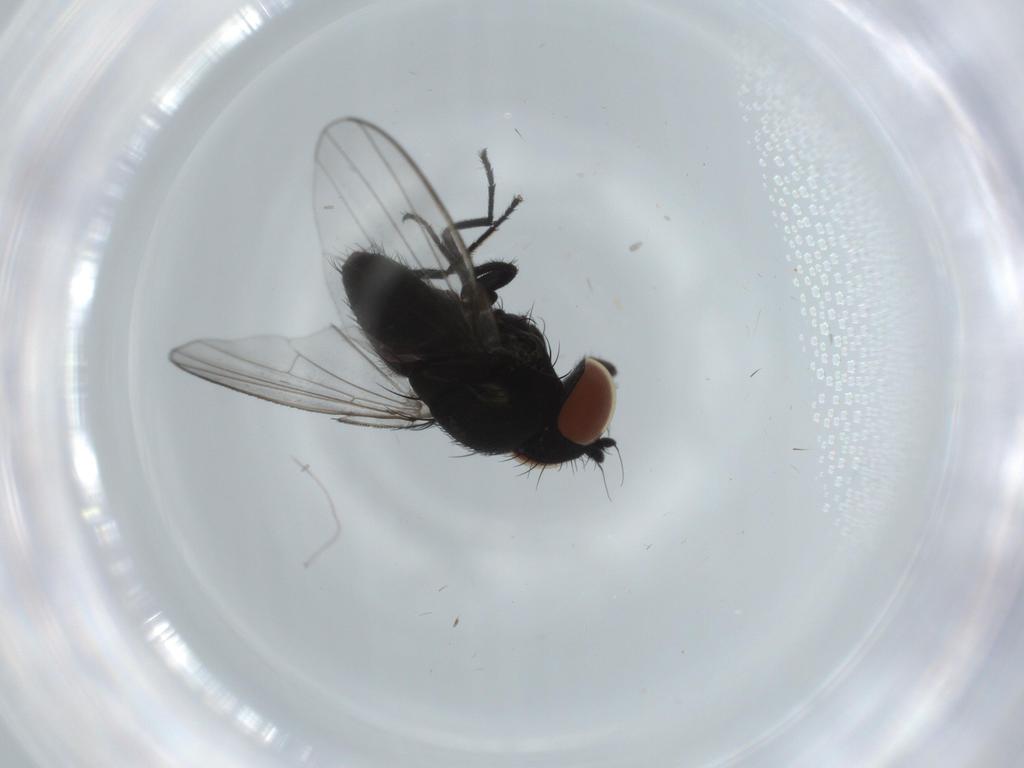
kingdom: Animalia
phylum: Arthropoda
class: Insecta
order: Diptera
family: Milichiidae
